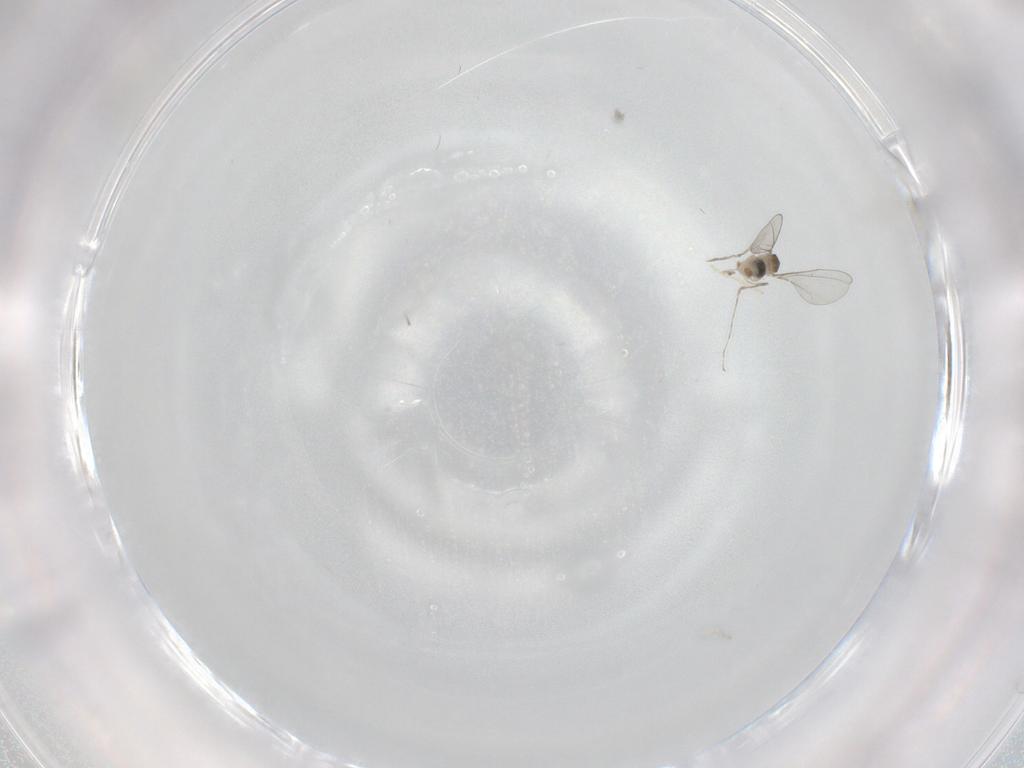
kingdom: Animalia
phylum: Arthropoda
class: Insecta
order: Diptera
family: Cecidomyiidae
